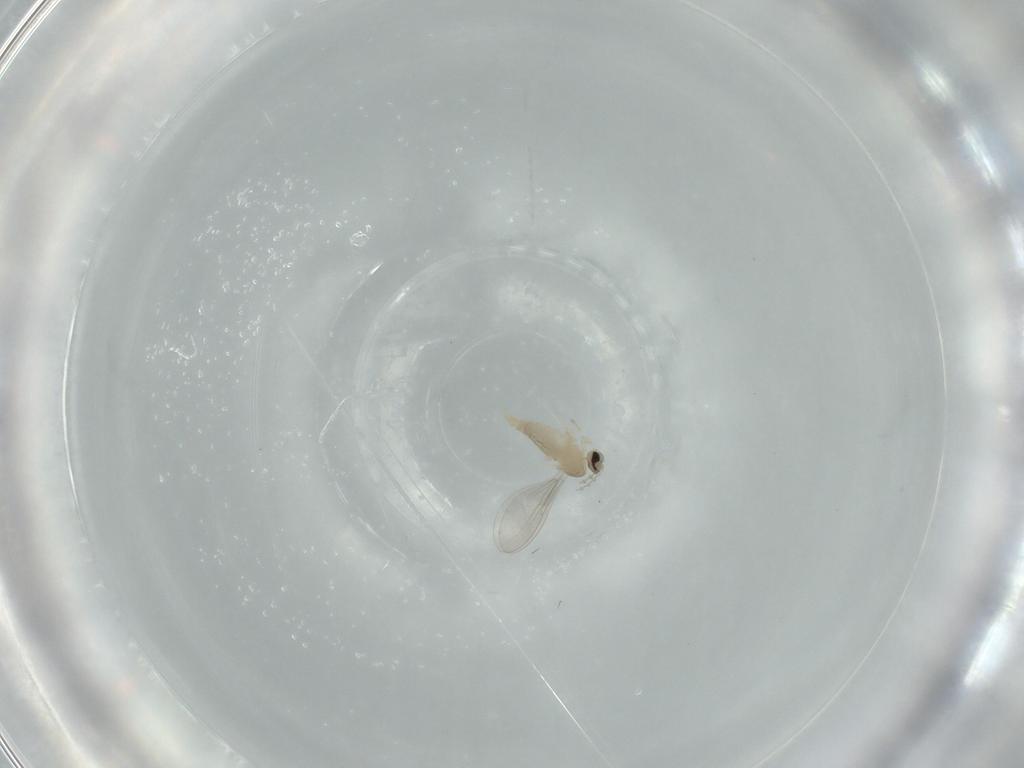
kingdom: Animalia
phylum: Arthropoda
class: Insecta
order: Diptera
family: Cecidomyiidae
